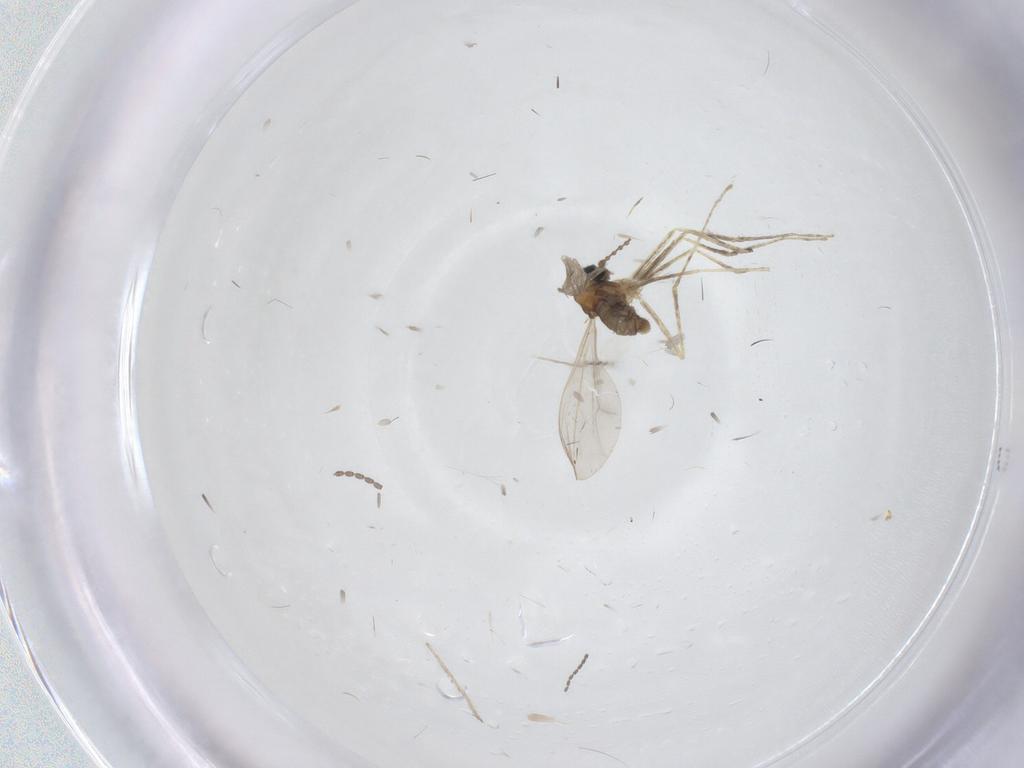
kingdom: Animalia
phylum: Arthropoda
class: Insecta
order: Diptera
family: Cecidomyiidae
